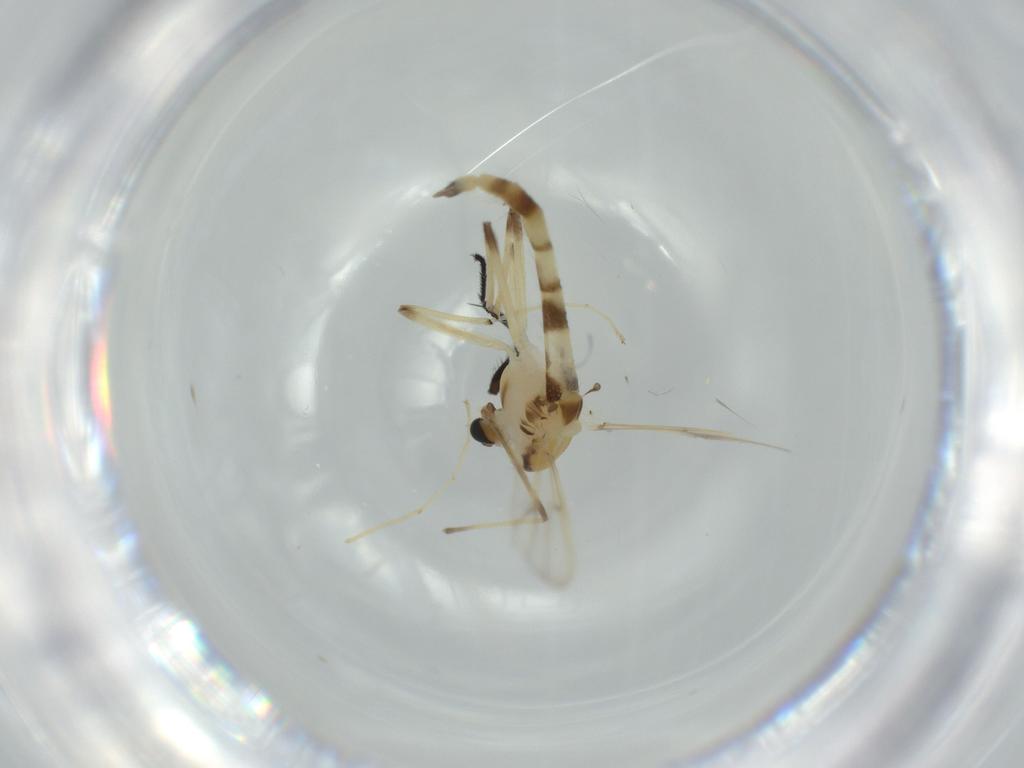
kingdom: Animalia
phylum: Arthropoda
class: Insecta
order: Diptera
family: Chironomidae
